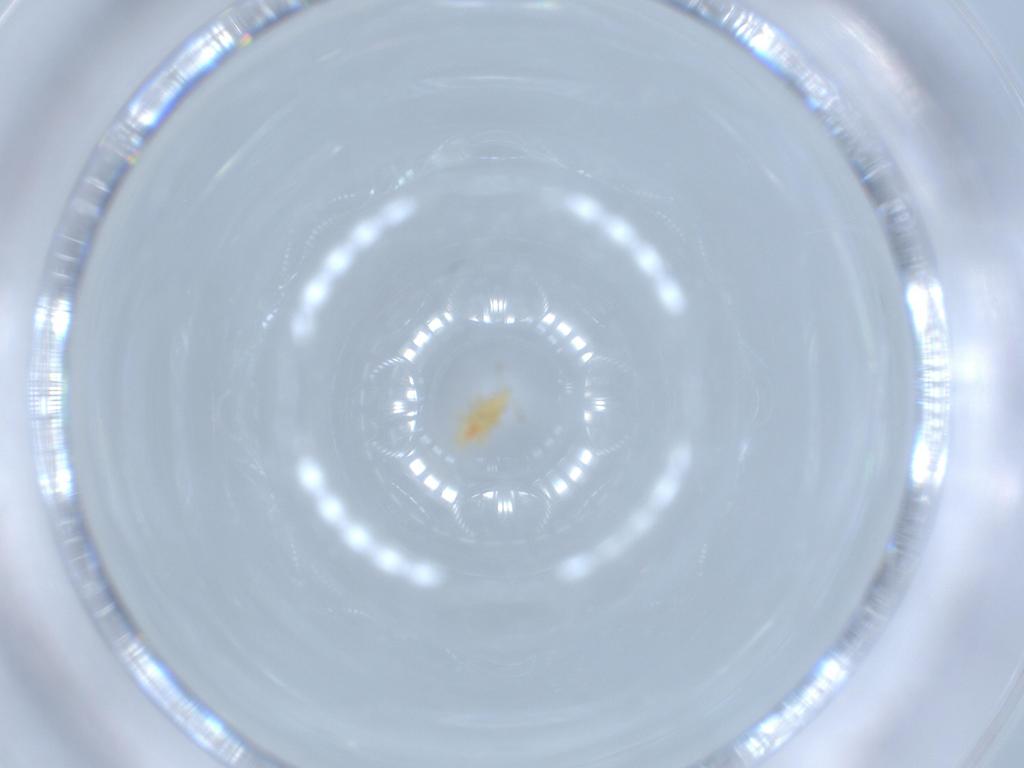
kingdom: Animalia
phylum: Arthropoda
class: Insecta
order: Hemiptera
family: Anthocoridae
